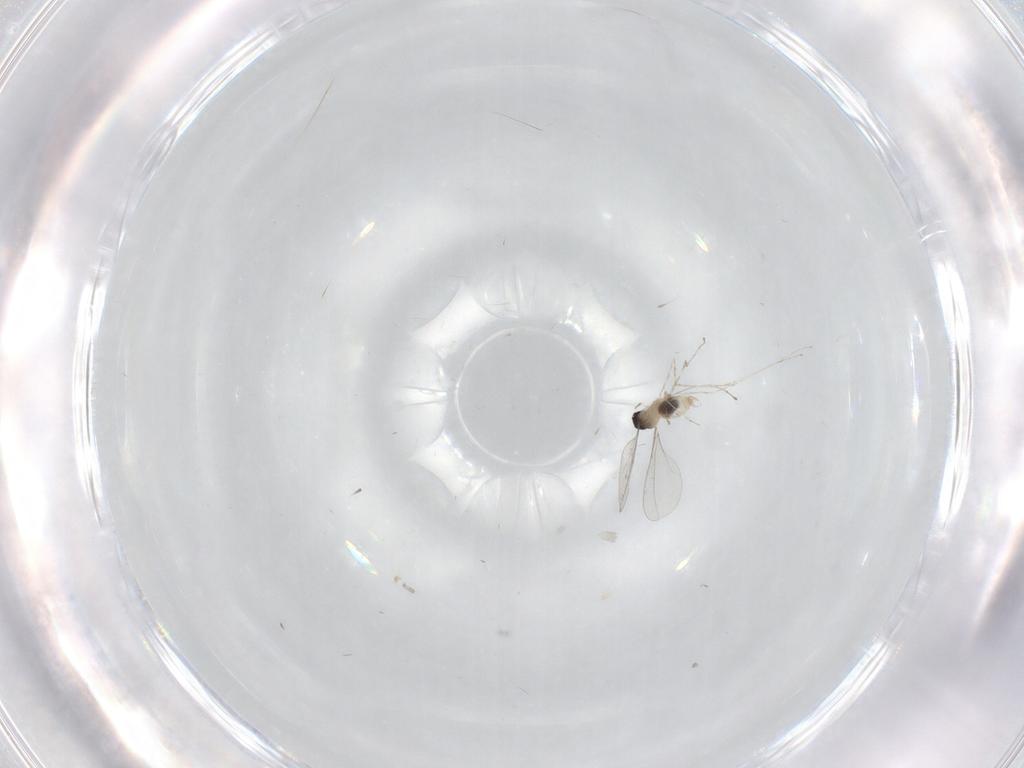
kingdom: Animalia
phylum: Arthropoda
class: Insecta
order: Diptera
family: Cecidomyiidae
